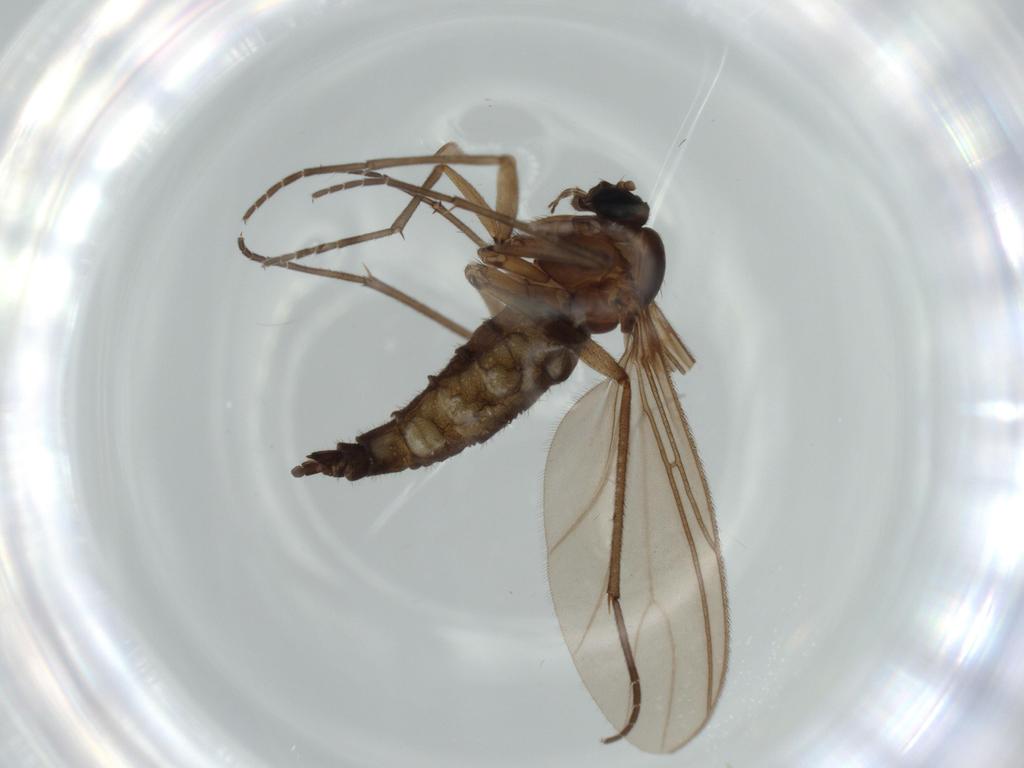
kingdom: Animalia
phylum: Arthropoda
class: Insecta
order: Diptera
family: Sciaridae
